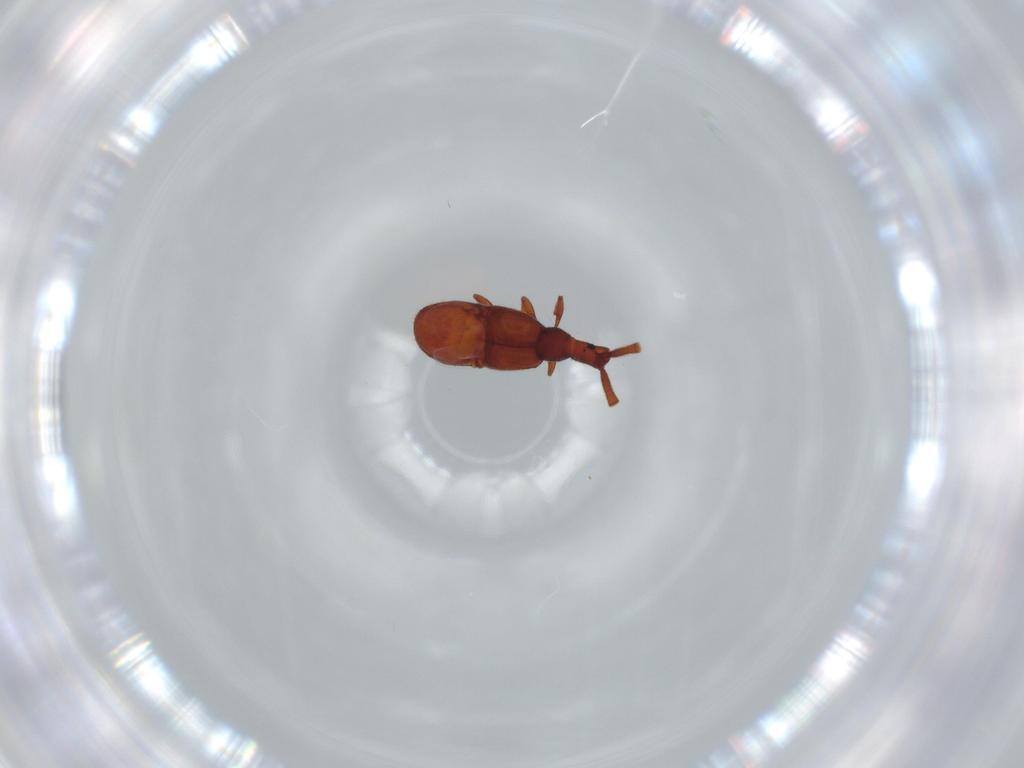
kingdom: Animalia
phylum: Arthropoda
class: Insecta
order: Coleoptera
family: Staphylinidae
